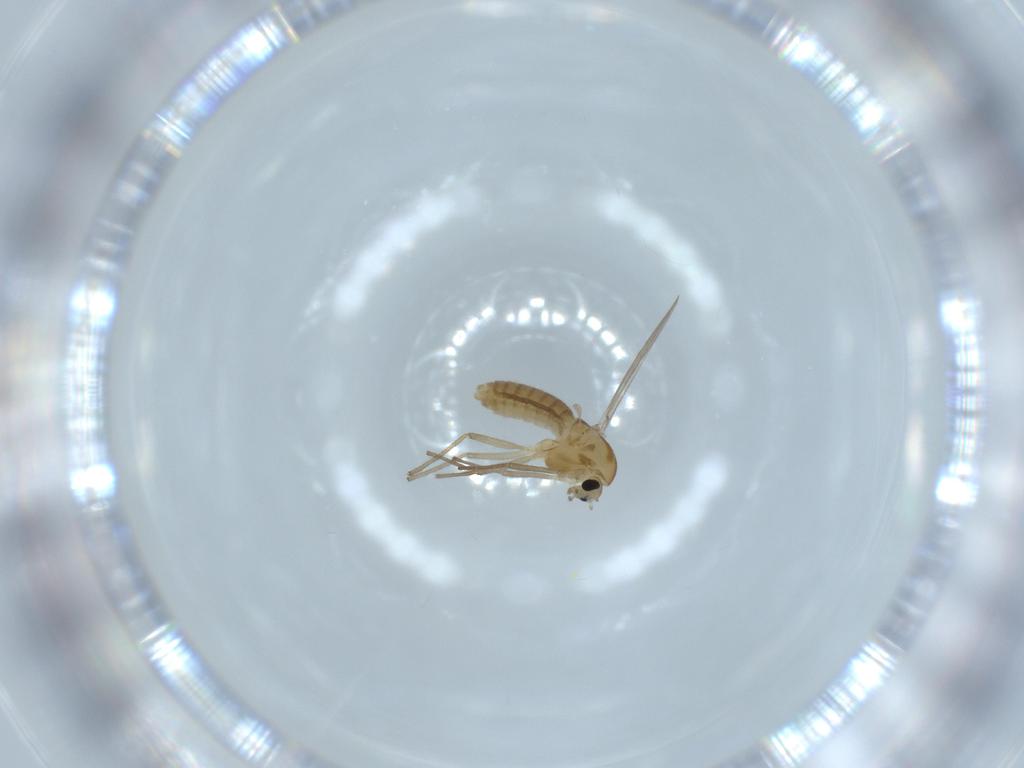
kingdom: Animalia
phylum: Arthropoda
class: Insecta
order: Diptera
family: Chironomidae
